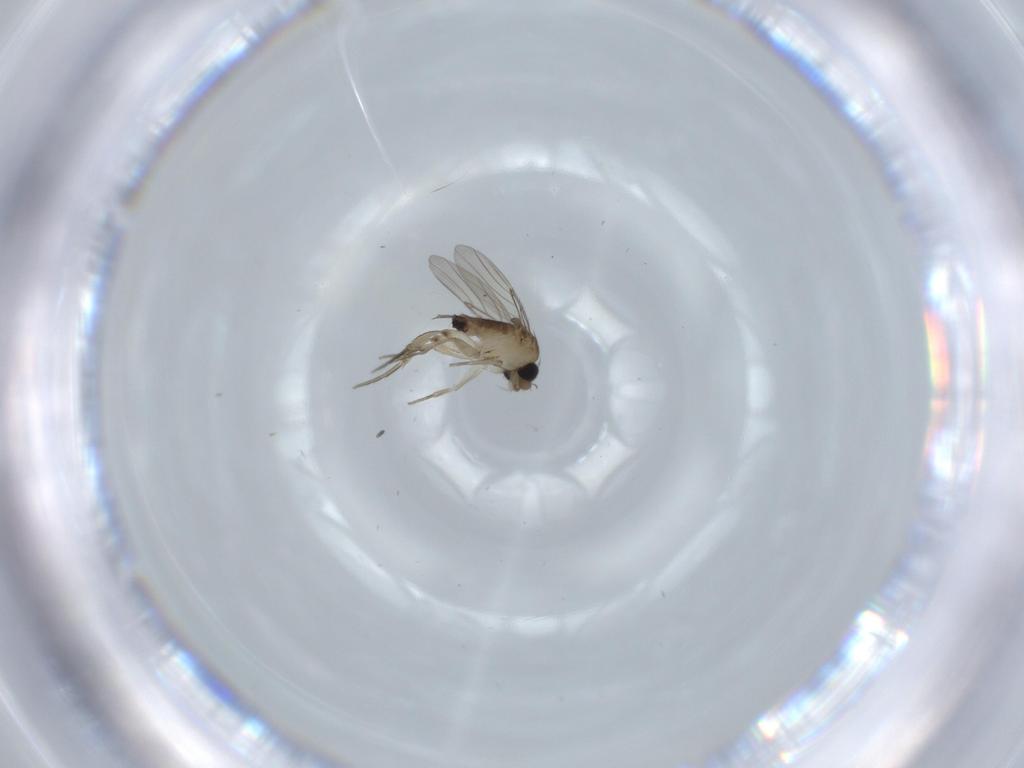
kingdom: Animalia
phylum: Arthropoda
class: Insecta
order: Diptera
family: Phoridae
